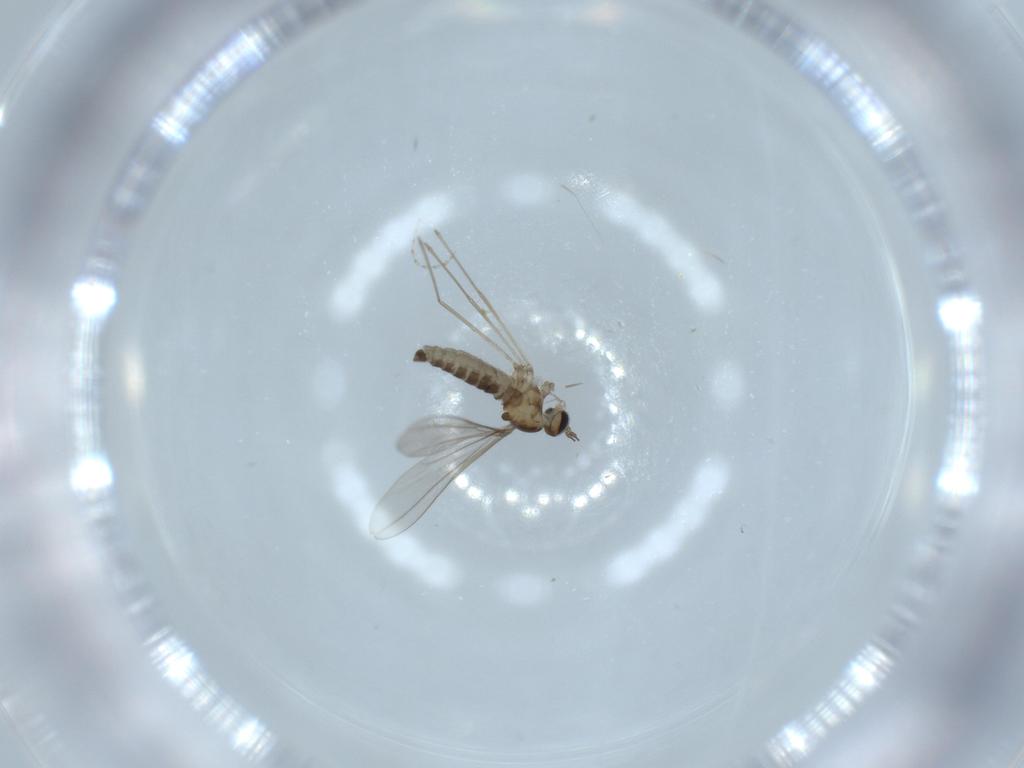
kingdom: Animalia
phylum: Arthropoda
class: Insecta
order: Diptera
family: Cecidomyiidae
